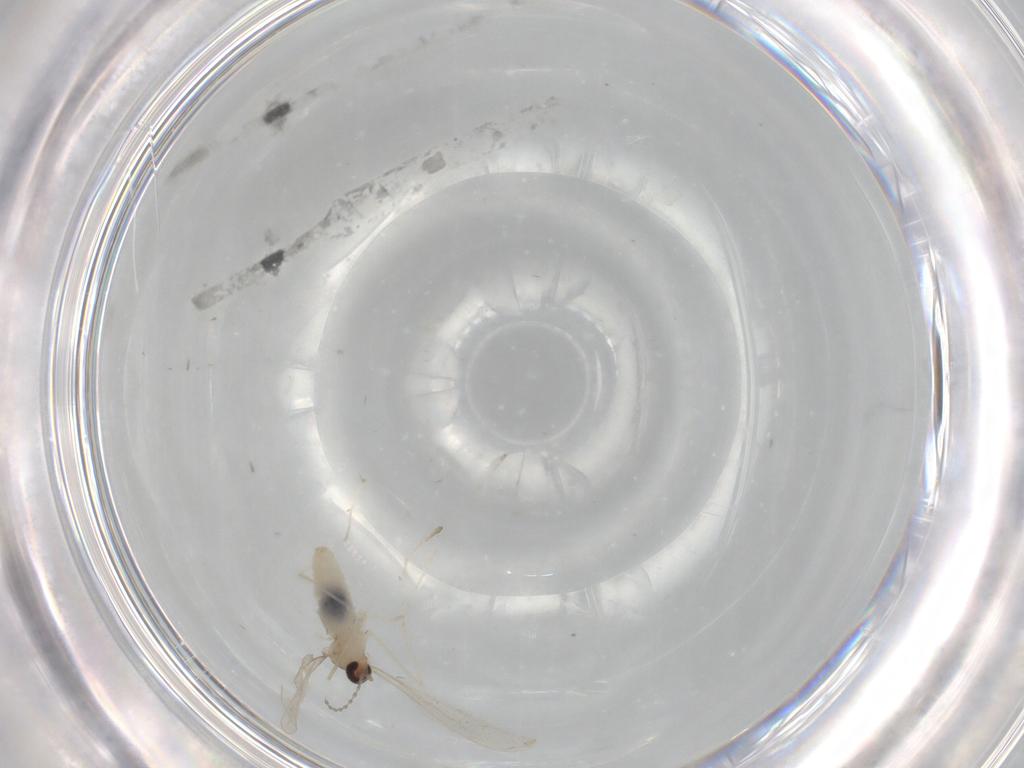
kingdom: Animalia
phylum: Arthropoda
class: Insecta
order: Diptera
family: Cecidomyiidae
